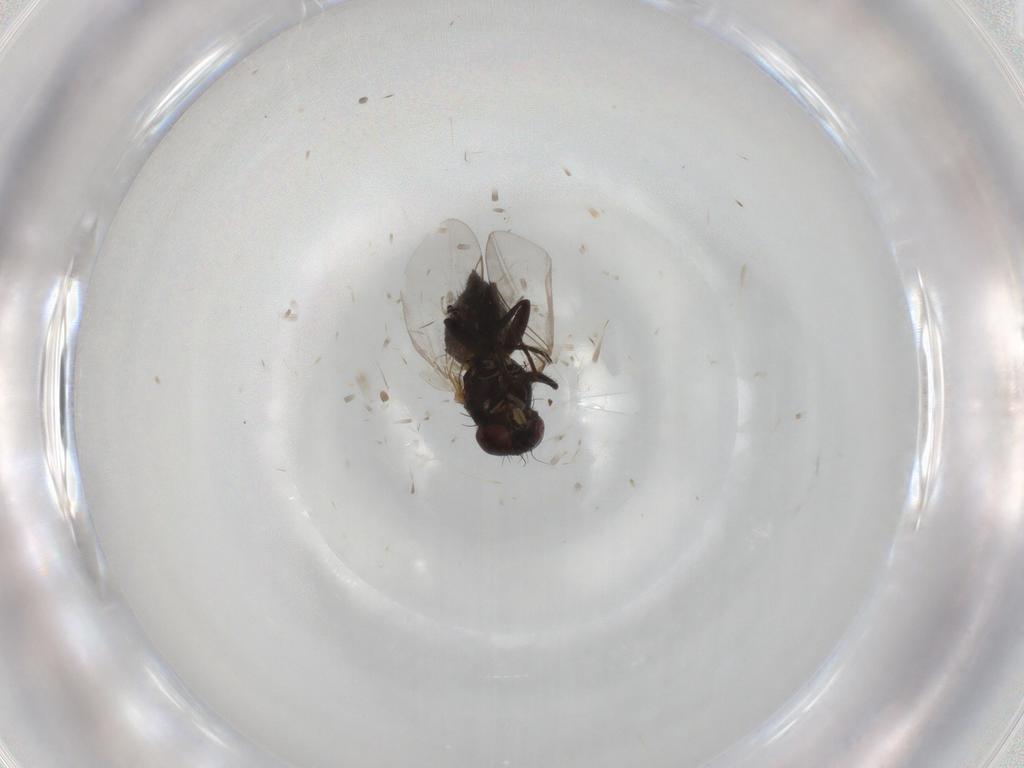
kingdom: Animalia
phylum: Arthropoda
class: Insecta
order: Diptera
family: Cecidomyiidae
